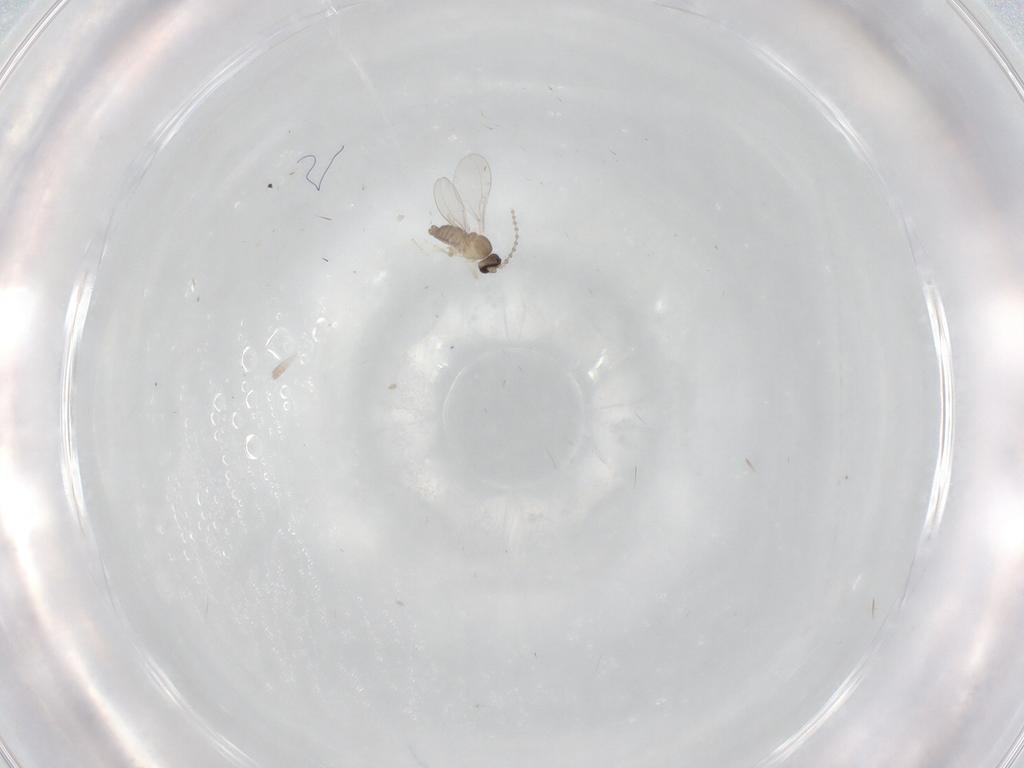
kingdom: Animalia
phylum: Arthropoda
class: Insecta
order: Diptera
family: Cecidomyiidae
